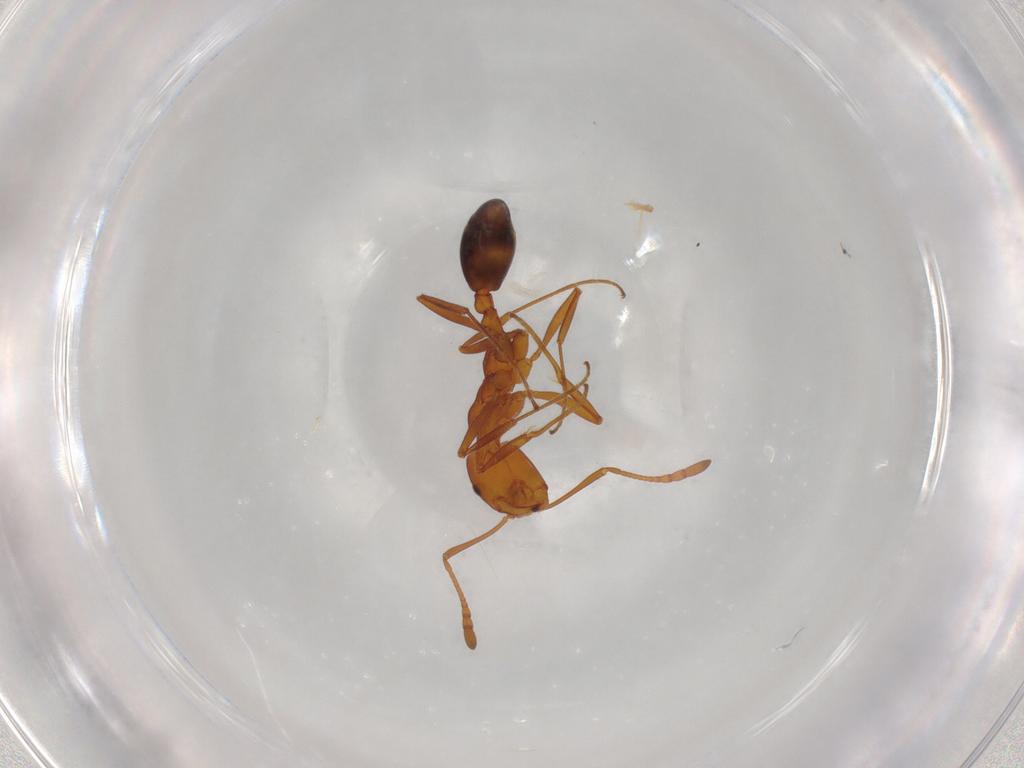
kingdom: Animalia
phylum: Arthropoda
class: Insecta
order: Hymenoptera
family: Formicidae
